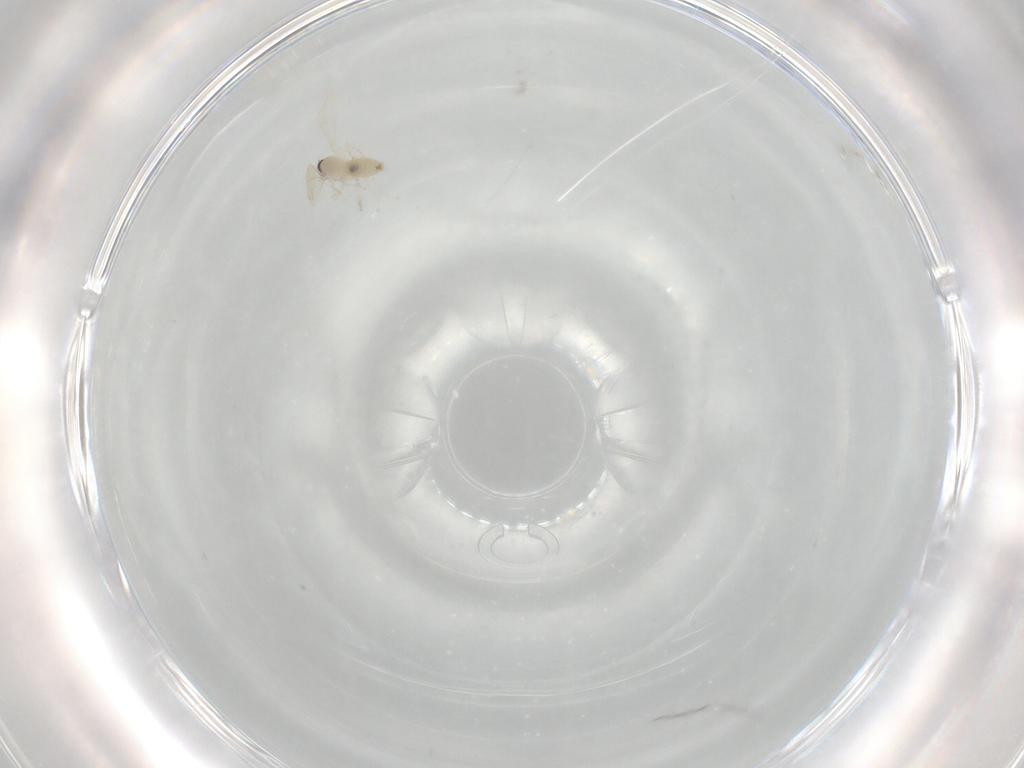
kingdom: Animalia
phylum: Arthropoda
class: Insecta
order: Diptera
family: Cecidomyiidae
